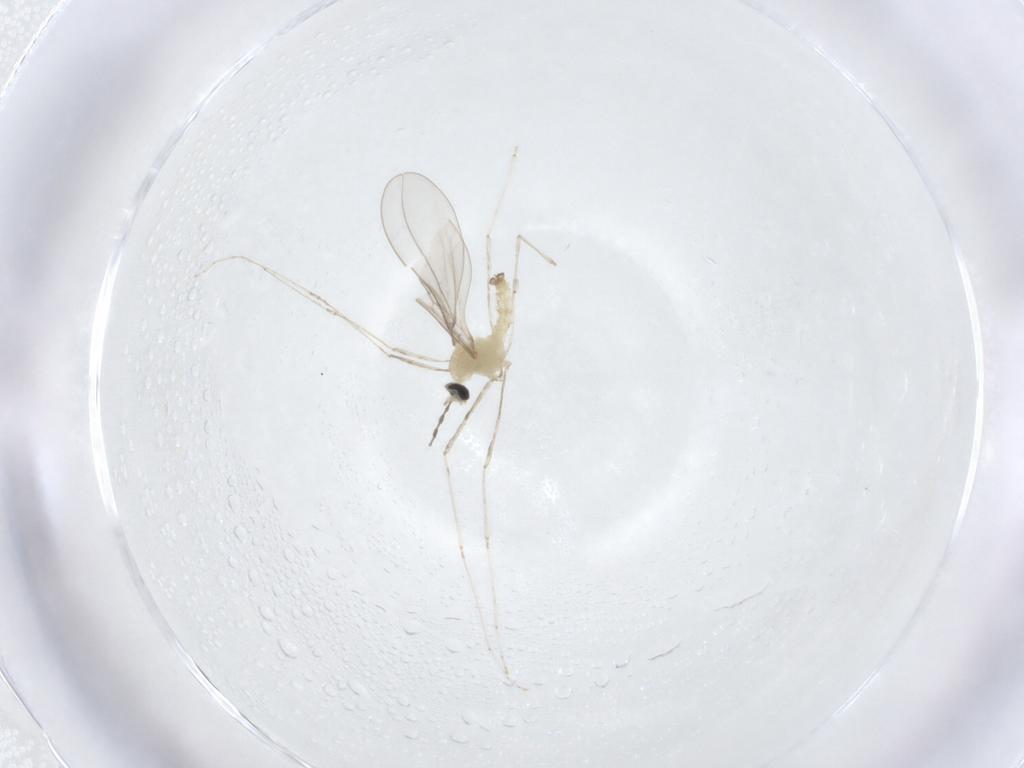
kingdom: Animalia
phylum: Arthropoda
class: Insecta
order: Diptera
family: Cecidomyiidae
